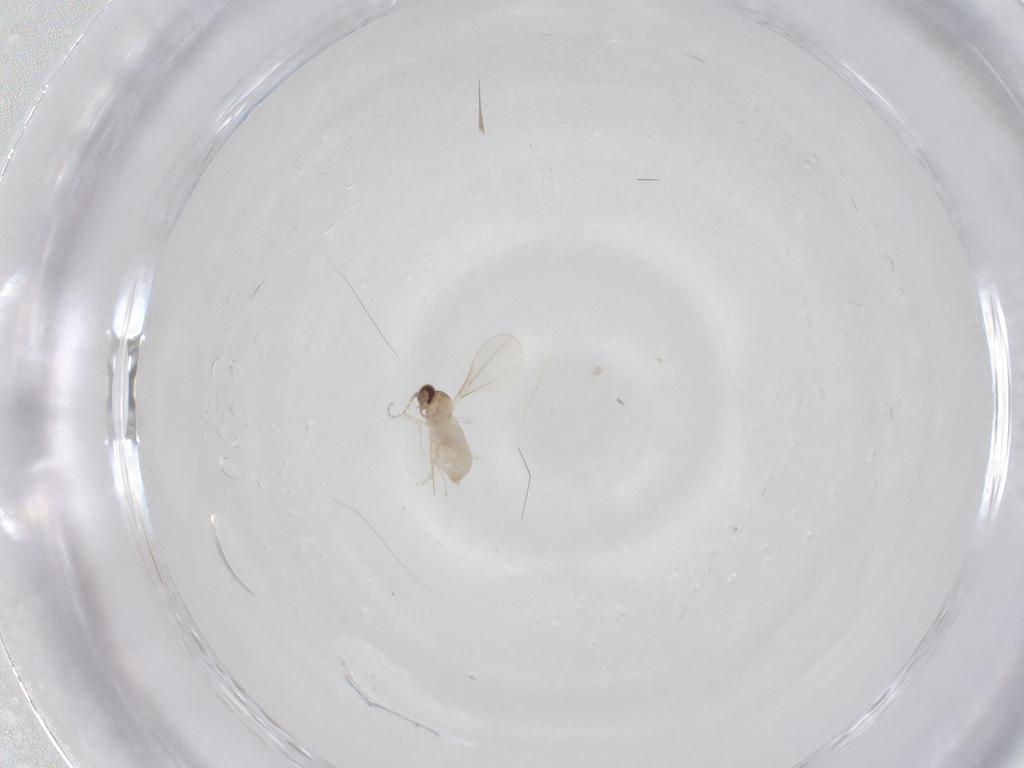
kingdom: Animalia
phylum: Arthropoda
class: Insecta
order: Diptera
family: Cecidomyiidae
